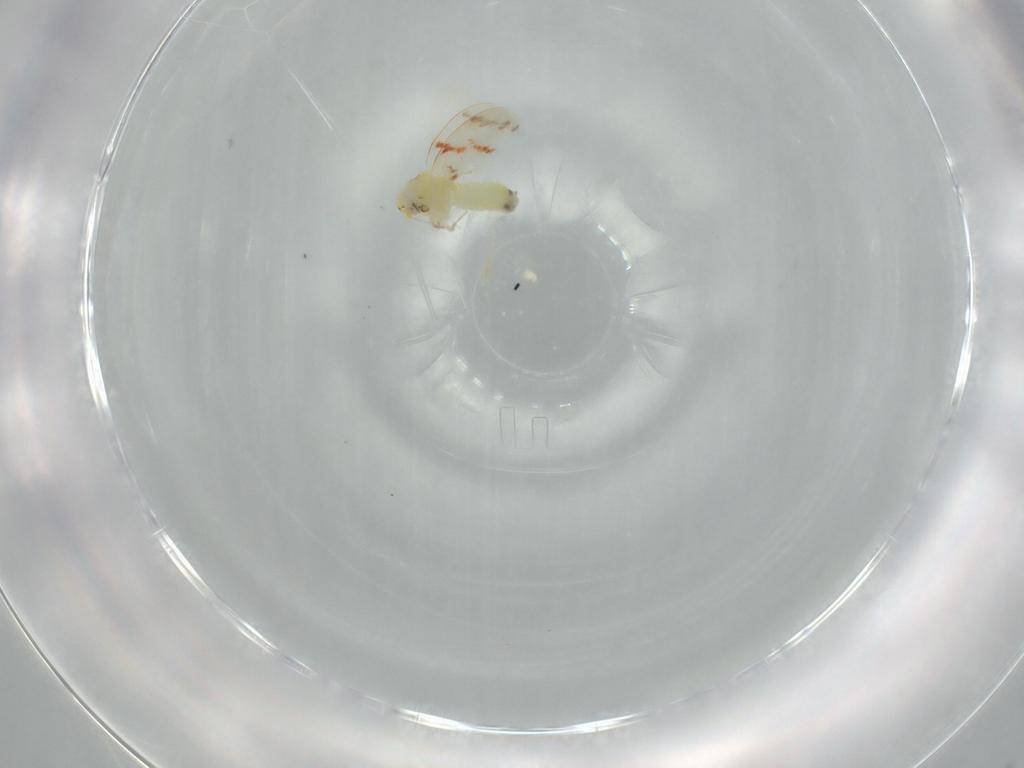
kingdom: Animalia
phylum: Arthropoda
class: Insecta
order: Hemiptera
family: Aleyrodidae
